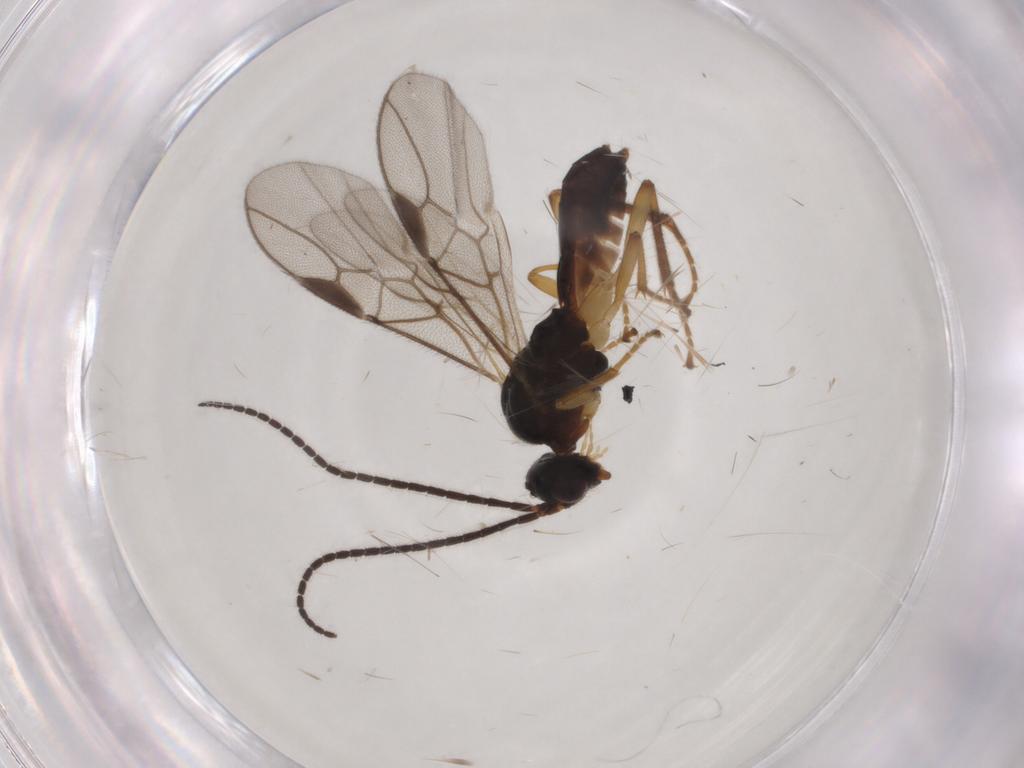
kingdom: Animalia
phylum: Arthropoda
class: Insecta
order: Hymenoptera
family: Braconidae
